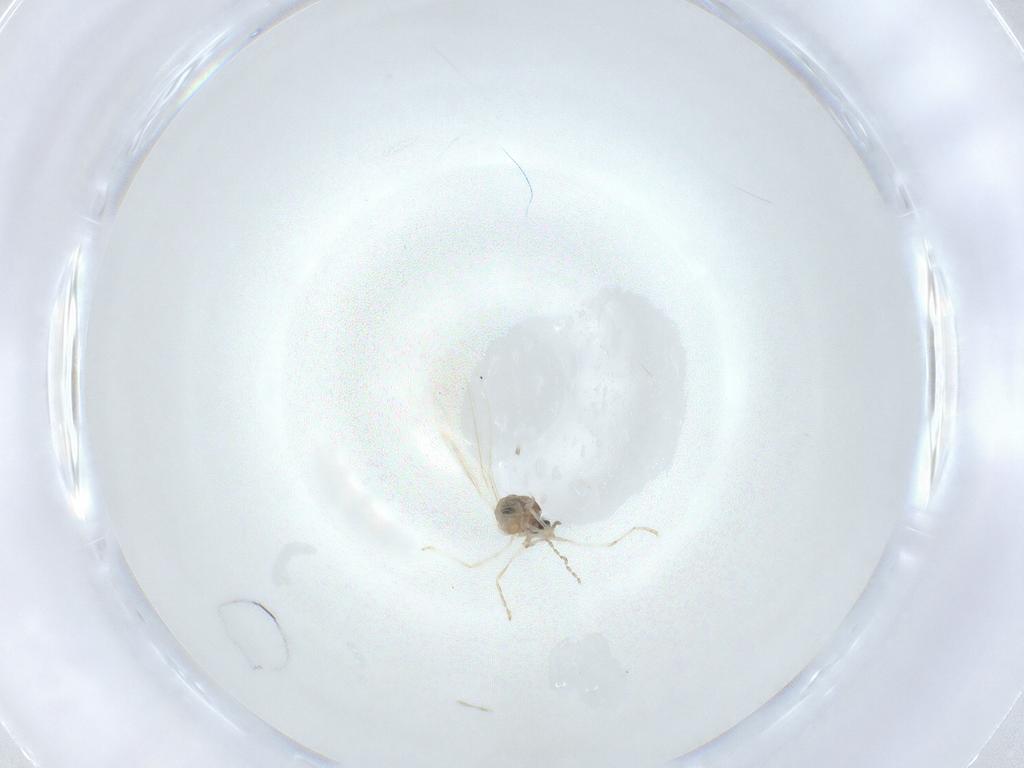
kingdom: Animalia
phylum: Arthropoda
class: Insecta
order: Diptera
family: Cecidomyiidae
